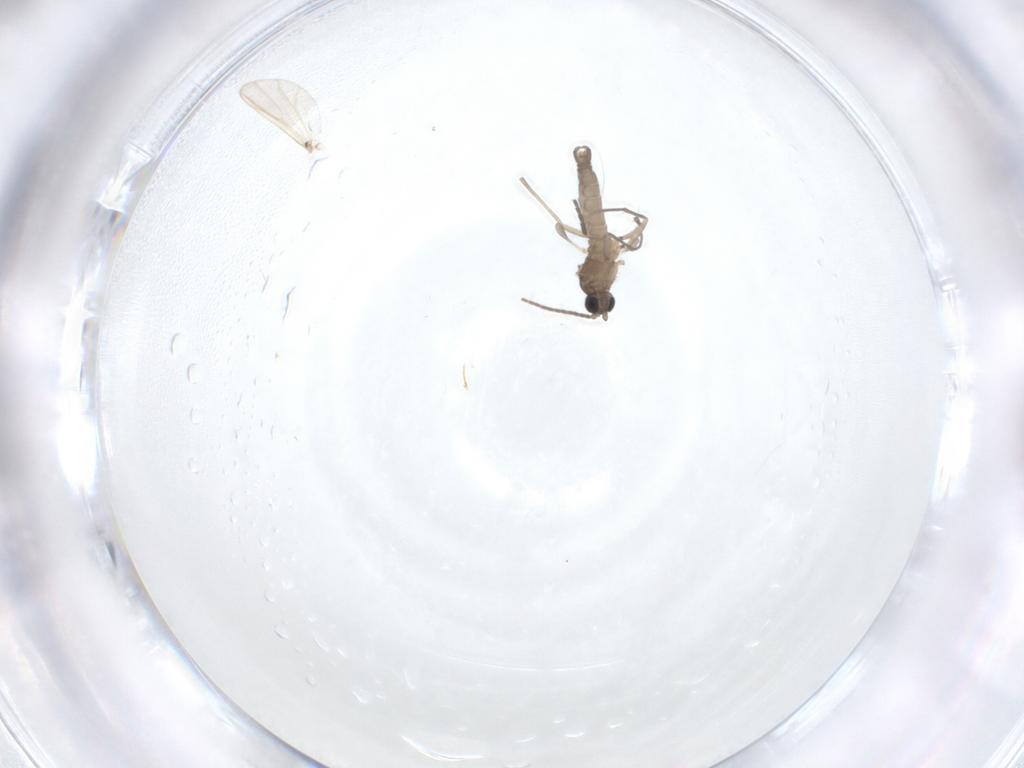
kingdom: Animalia
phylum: Arthropoda
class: Insecta
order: Diptera
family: Sciaridae
